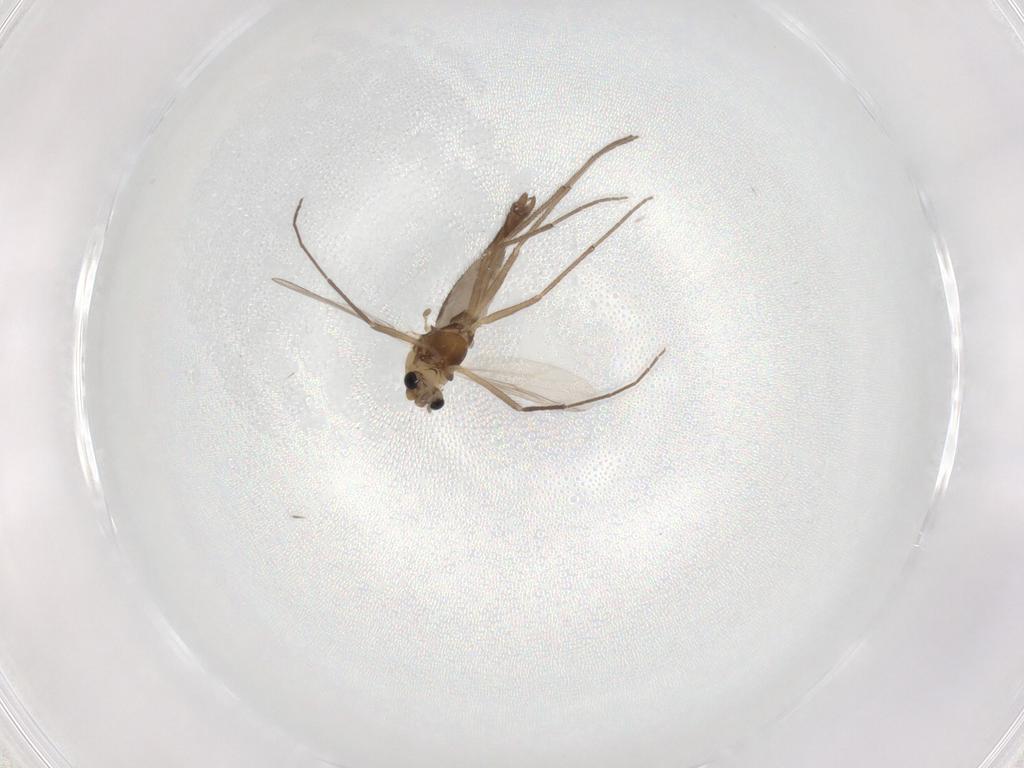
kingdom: Animalia
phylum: Arthropoda
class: Insecta
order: Diptera
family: Chironomidae
